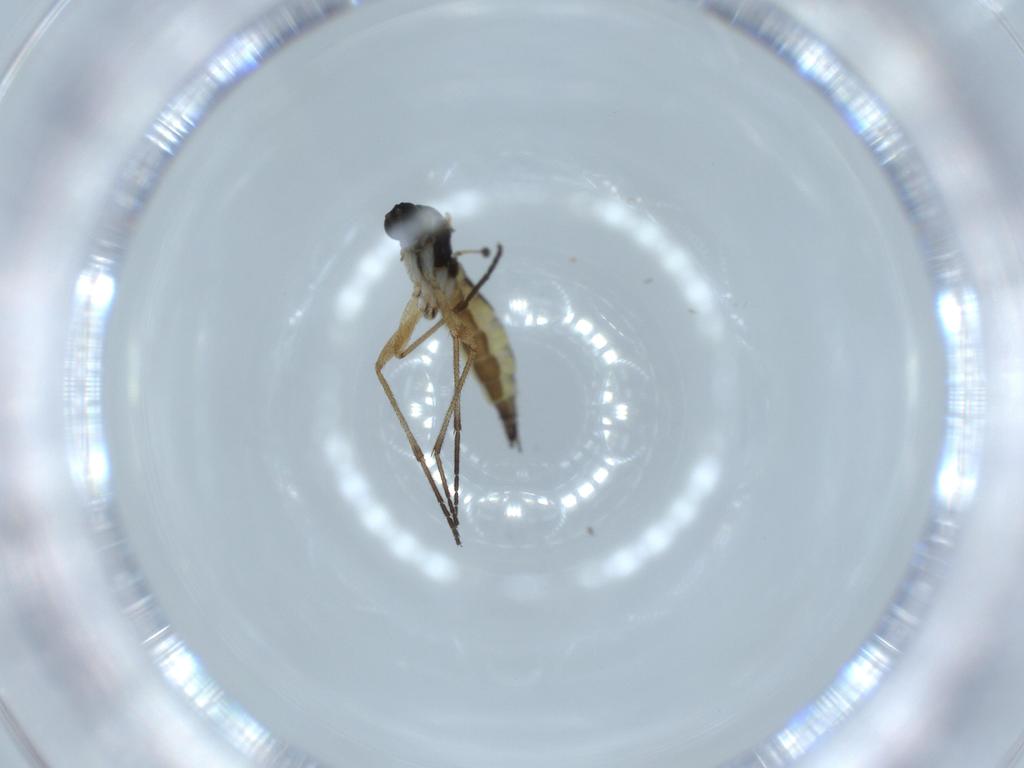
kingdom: Animalia
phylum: Arthropoda
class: Insecta
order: Diptera
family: Sciaridae
